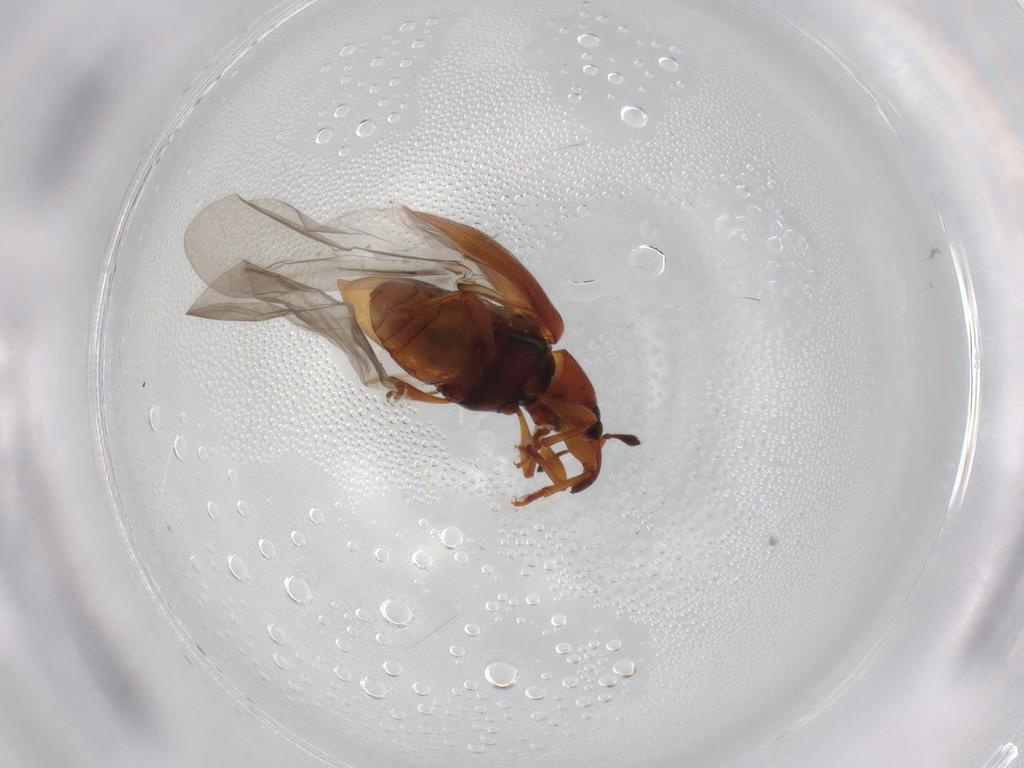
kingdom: Animalia
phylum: Arthropoda
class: Insecta
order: Coleoptera
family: Curculionidae
